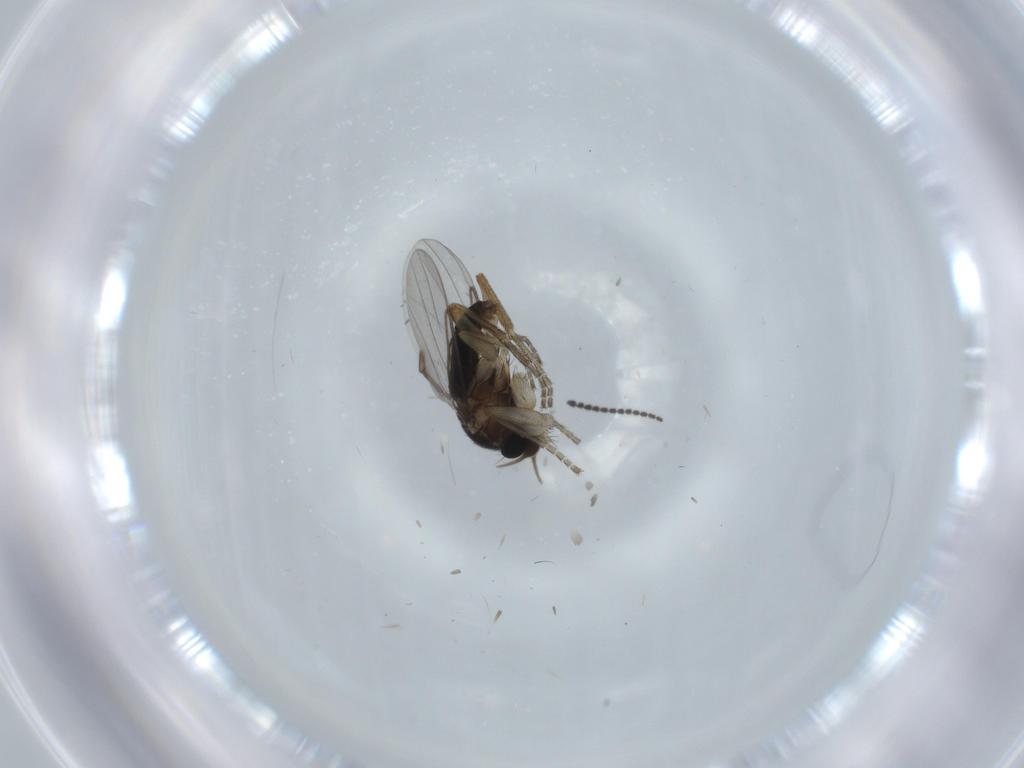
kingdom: Animalia
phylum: Arthropoda
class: Insecta
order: Diptera
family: Sciaridae
